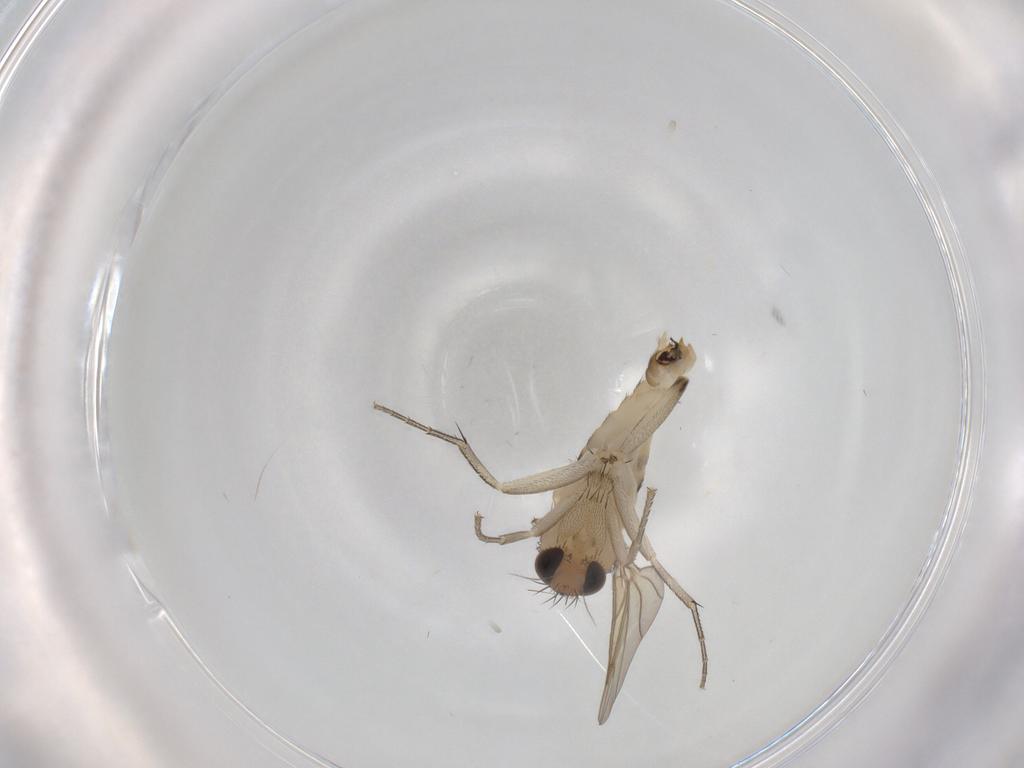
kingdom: Animalia
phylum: Arthropoda
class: Insecta
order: Diptera
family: Phoridae
